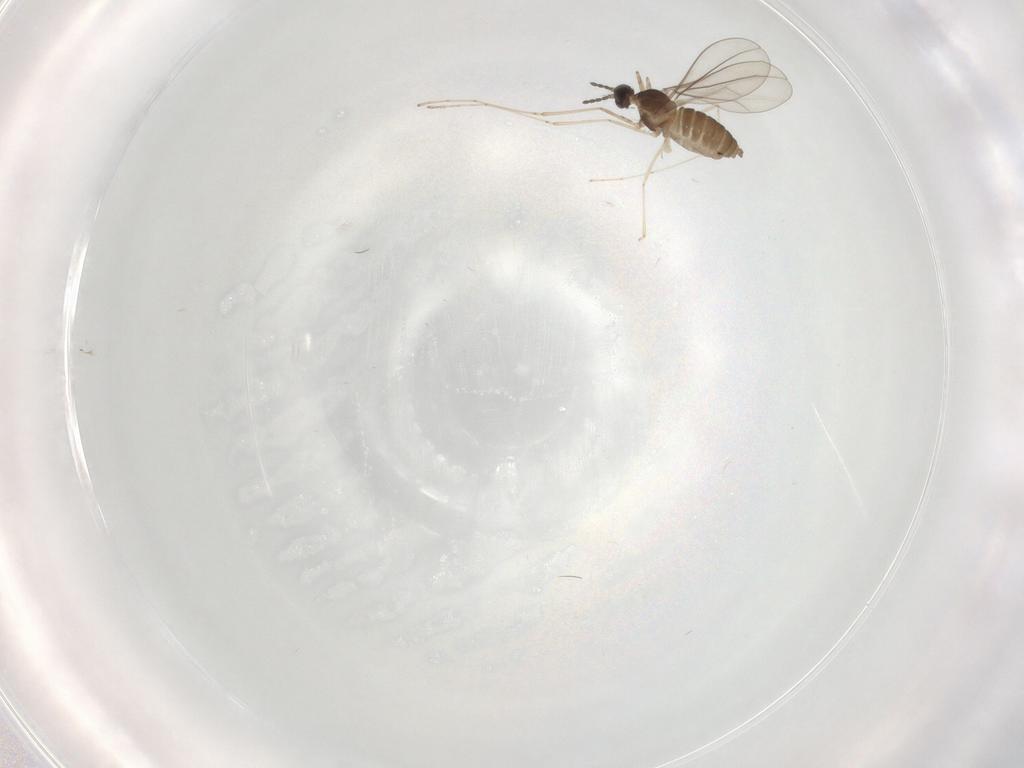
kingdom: Animalia
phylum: Arthropoda
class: Insecta
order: Diptera
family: Cecidomyiidae
